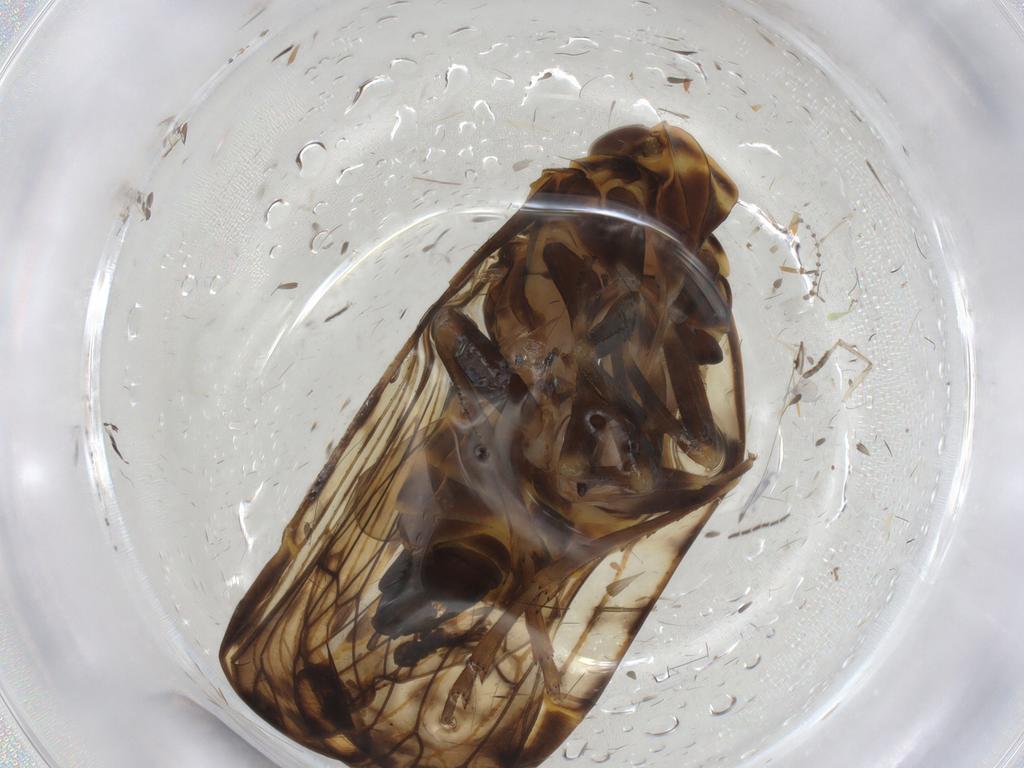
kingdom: Animalia
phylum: Arthropoda
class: Insecta
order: Hemiptera
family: Cixiidae
